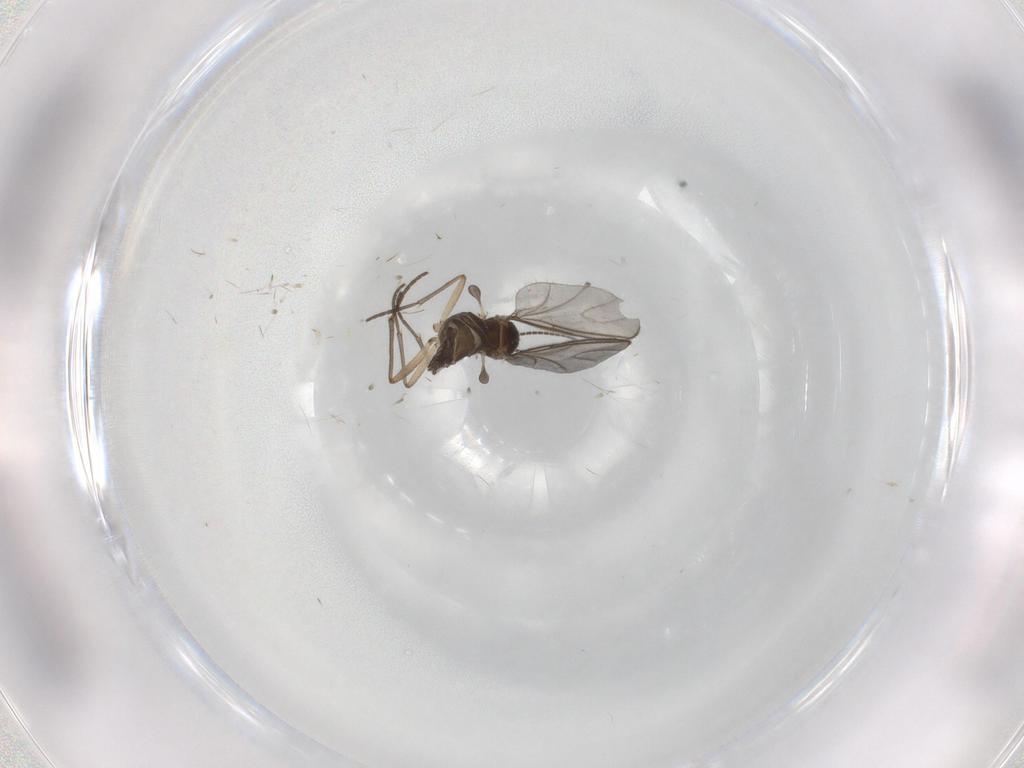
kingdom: Animalia
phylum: Arthropoda
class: Insecta
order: Diptera
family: Sciaridae
